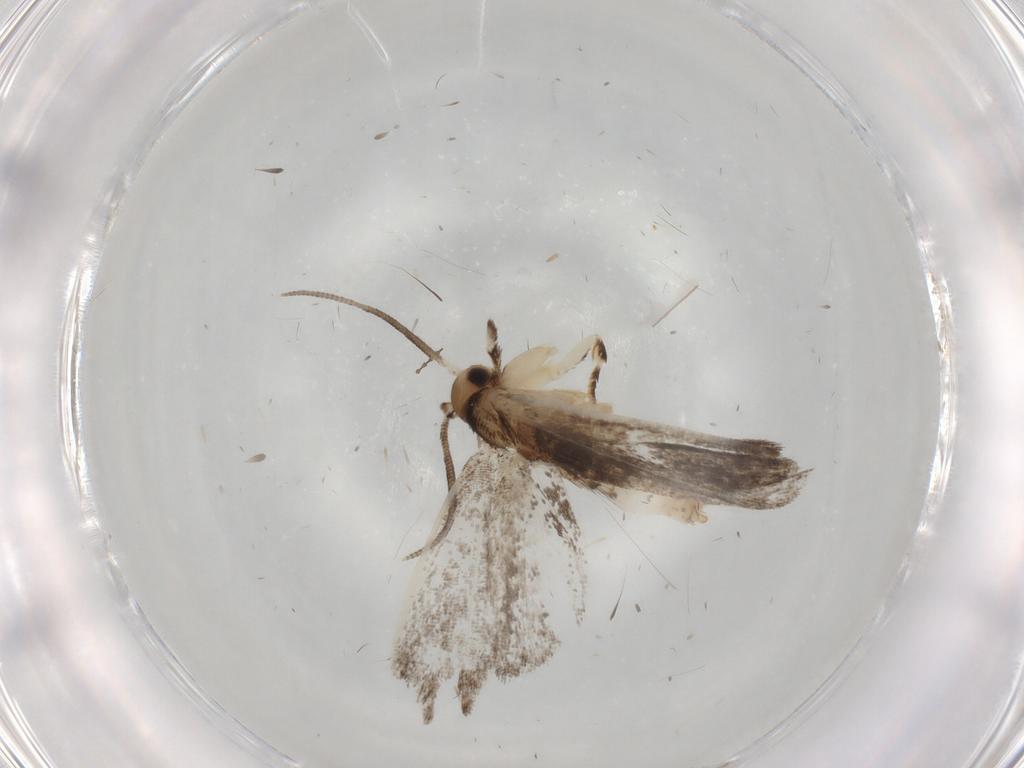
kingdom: Animalia
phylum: Arthropoda
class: Insecta
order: Lepidoptera
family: Dryadaulidae
